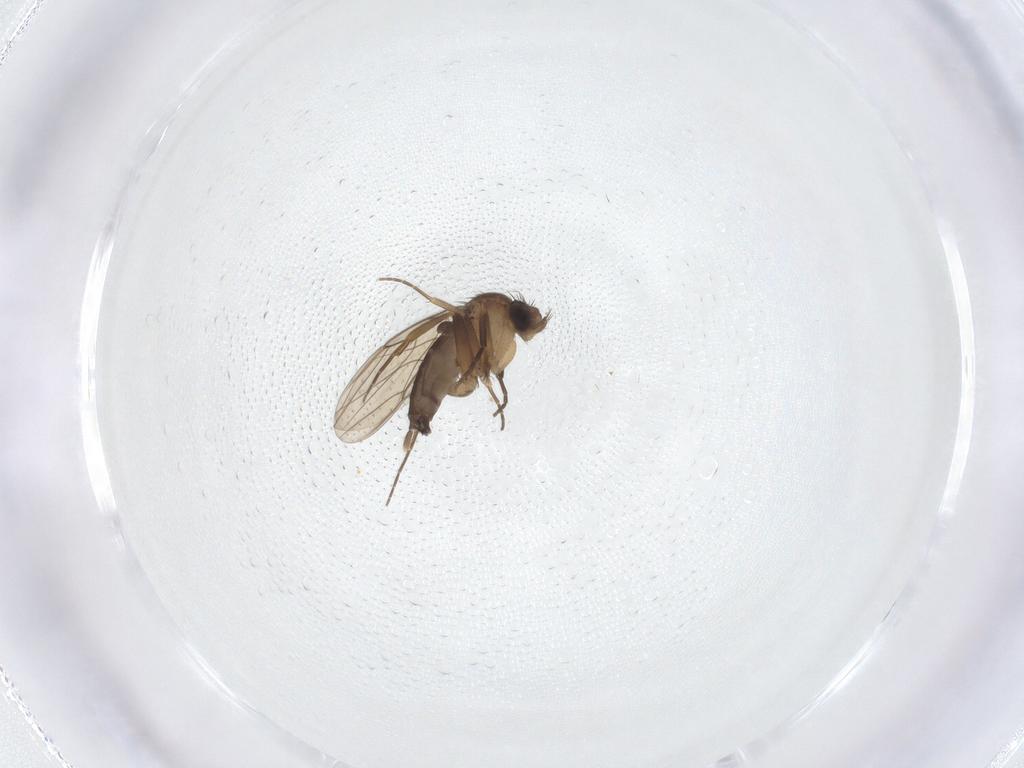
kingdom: Animalia
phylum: Arthropoda
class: Insecta
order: Diptera
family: Phoridae
